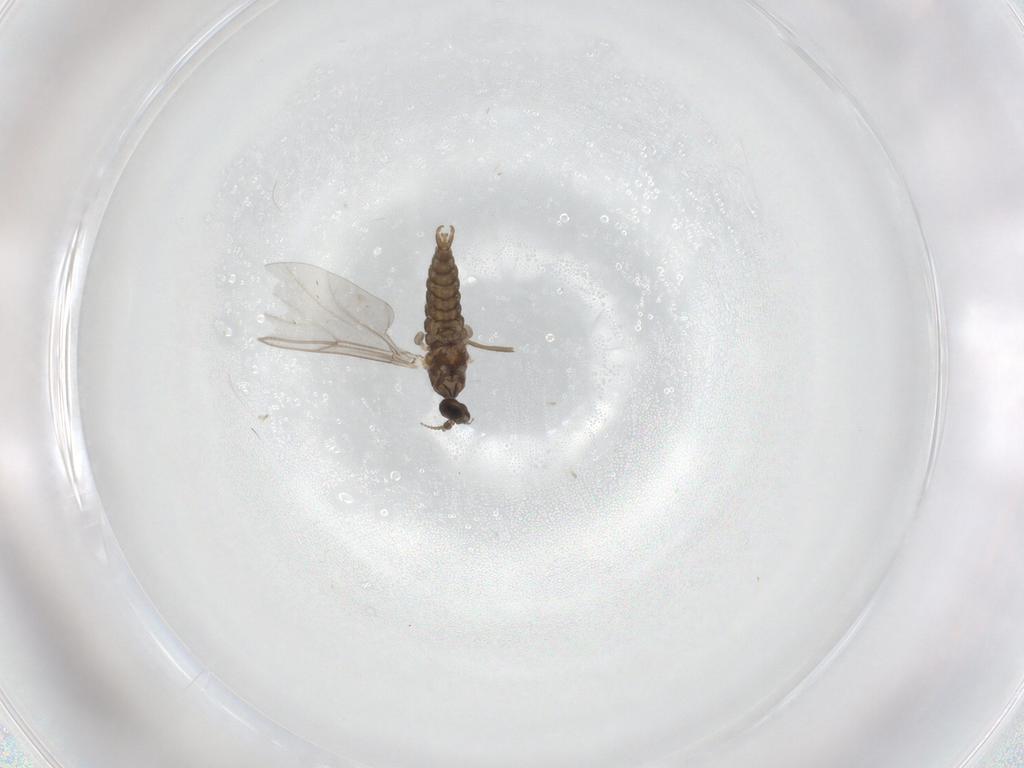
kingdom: Animalia
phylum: Arthropoda
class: Insecta
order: Diptera
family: Cecidomyiidae
